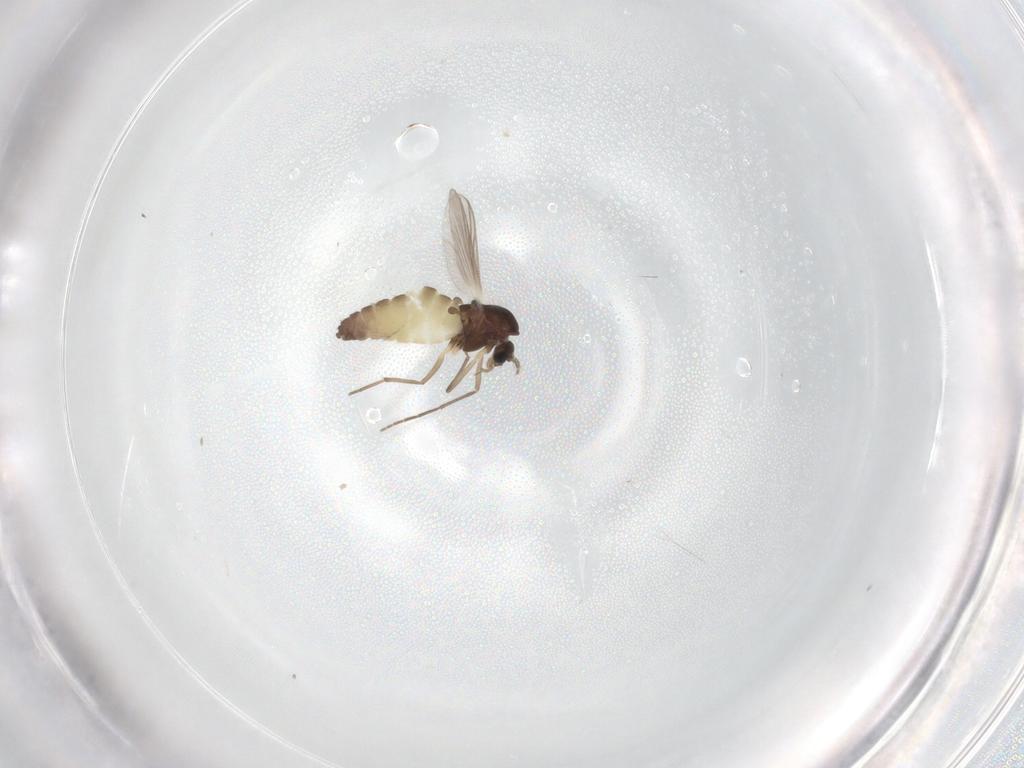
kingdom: Animalia
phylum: Arthropoda
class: Insecta
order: Diptera
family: Chironomidae
